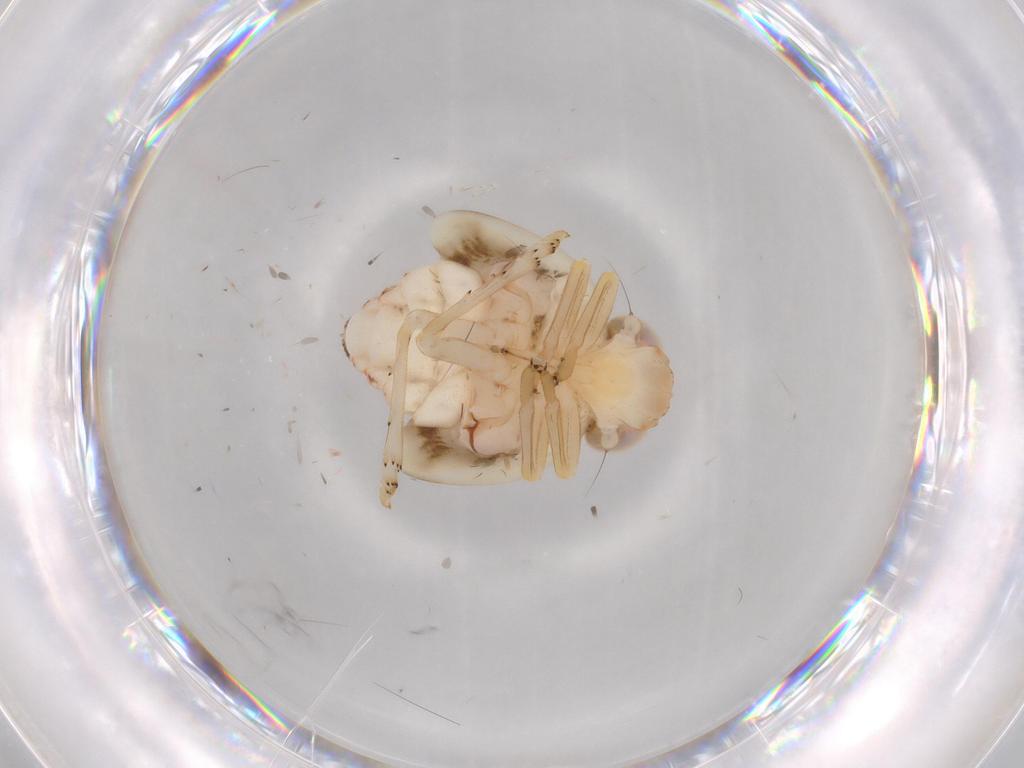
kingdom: Animalia
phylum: Arthropoda
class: Insecta
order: Hemiptera
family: Nogodinidae
